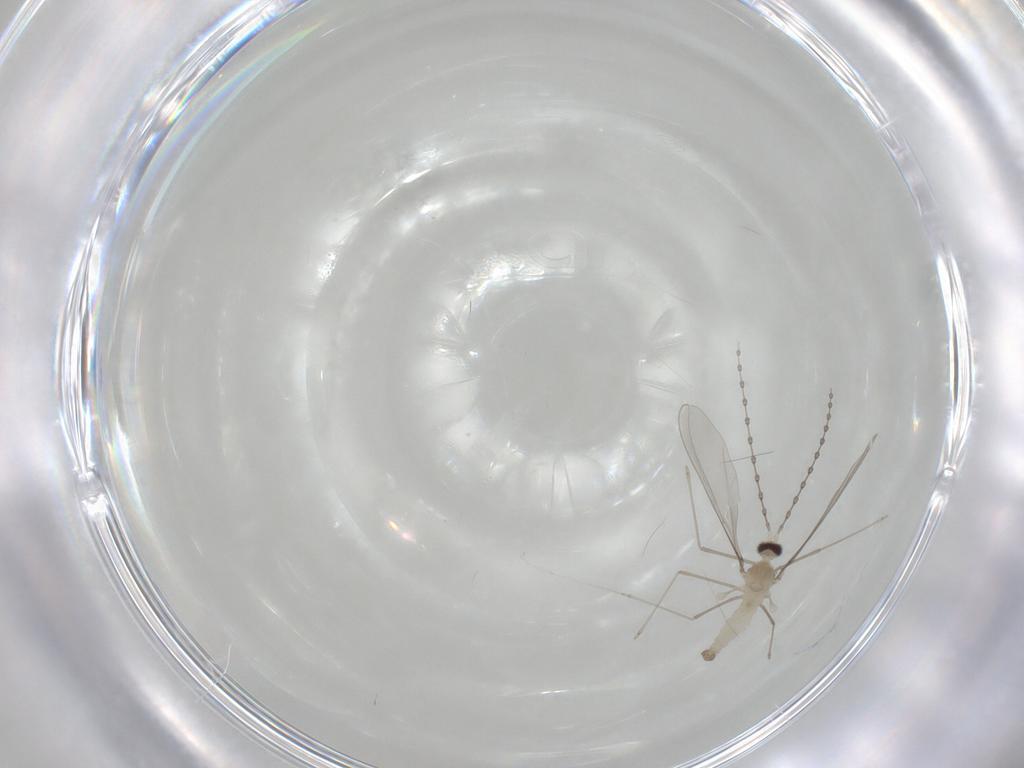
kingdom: Animalia
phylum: Arthropoda
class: Insecta
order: Diptera
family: Cecidomyiidae
